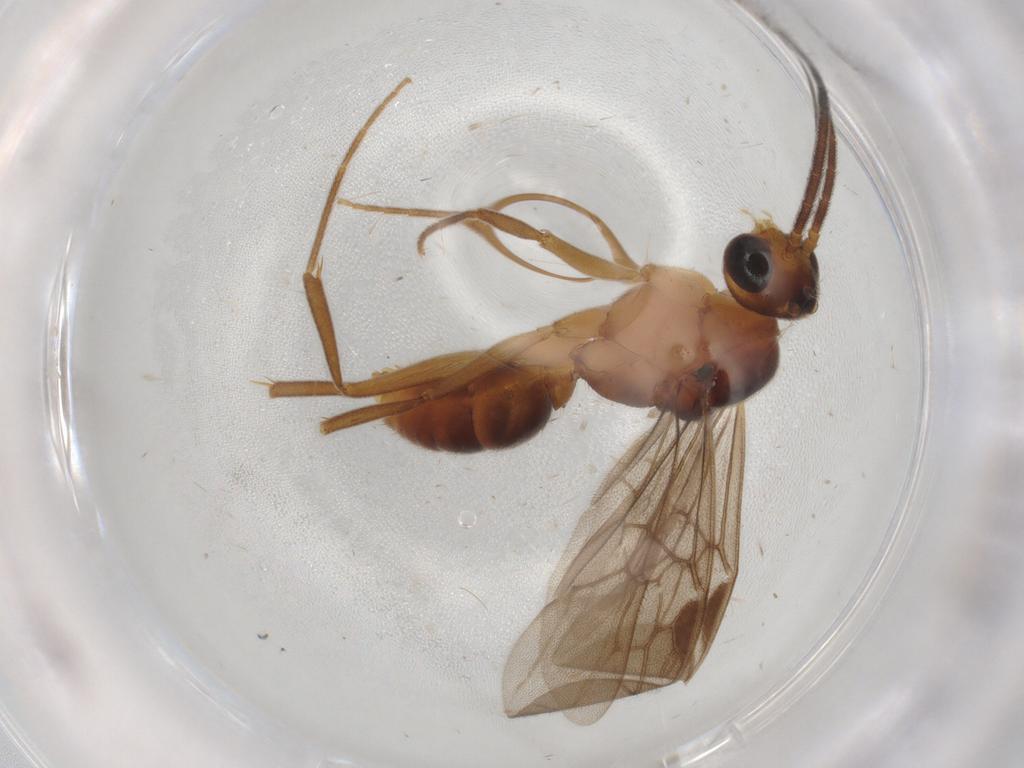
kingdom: Animalia
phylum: Arthropoda
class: Insecta
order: Hymenoptera
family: Formicidae
